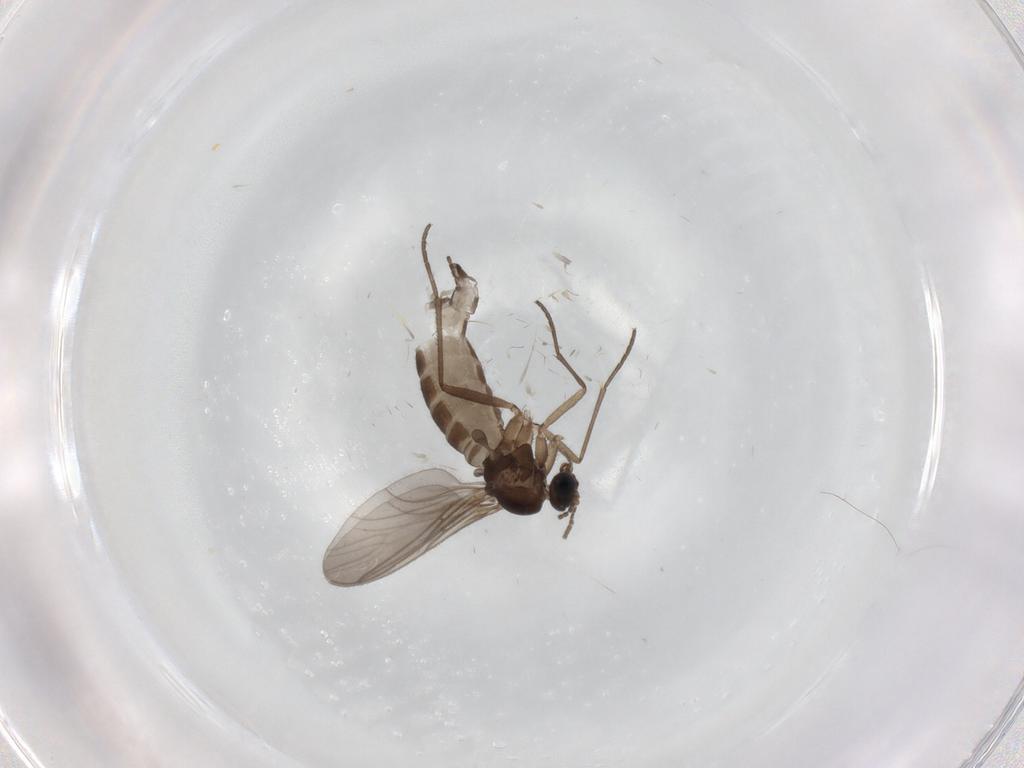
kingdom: Animalia
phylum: Arthropoda
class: Insecta
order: Diptera
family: Sciaridae
